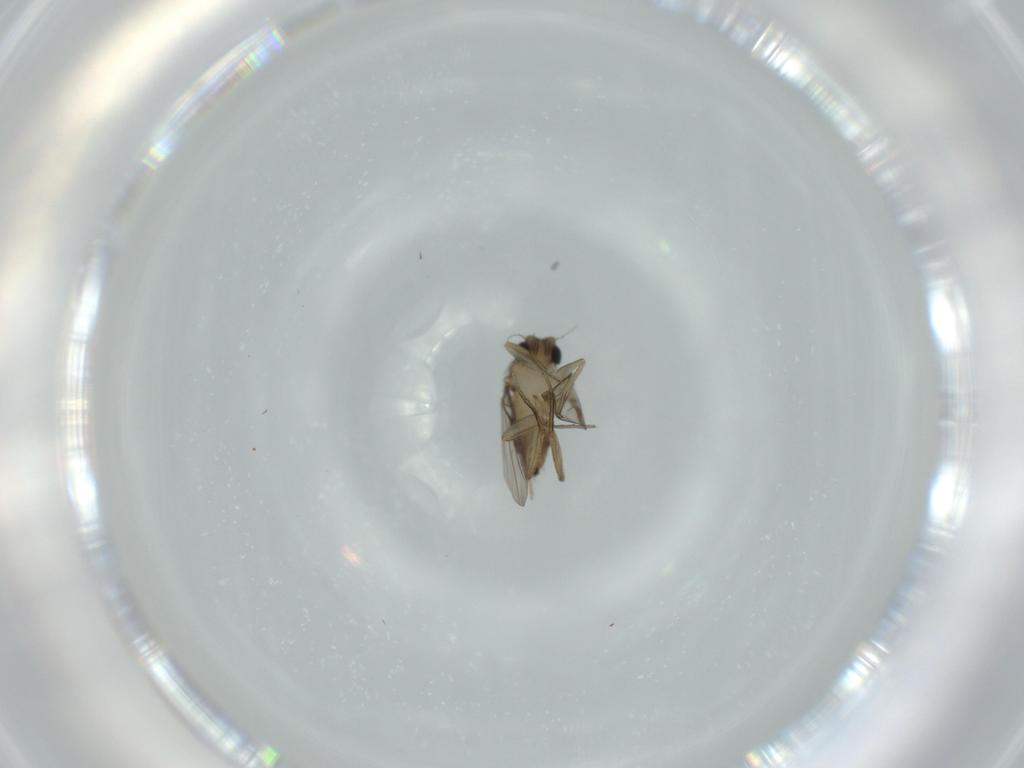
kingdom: Animalia
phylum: Arthropoda
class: Insecta
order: Diptera
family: Phoridae
